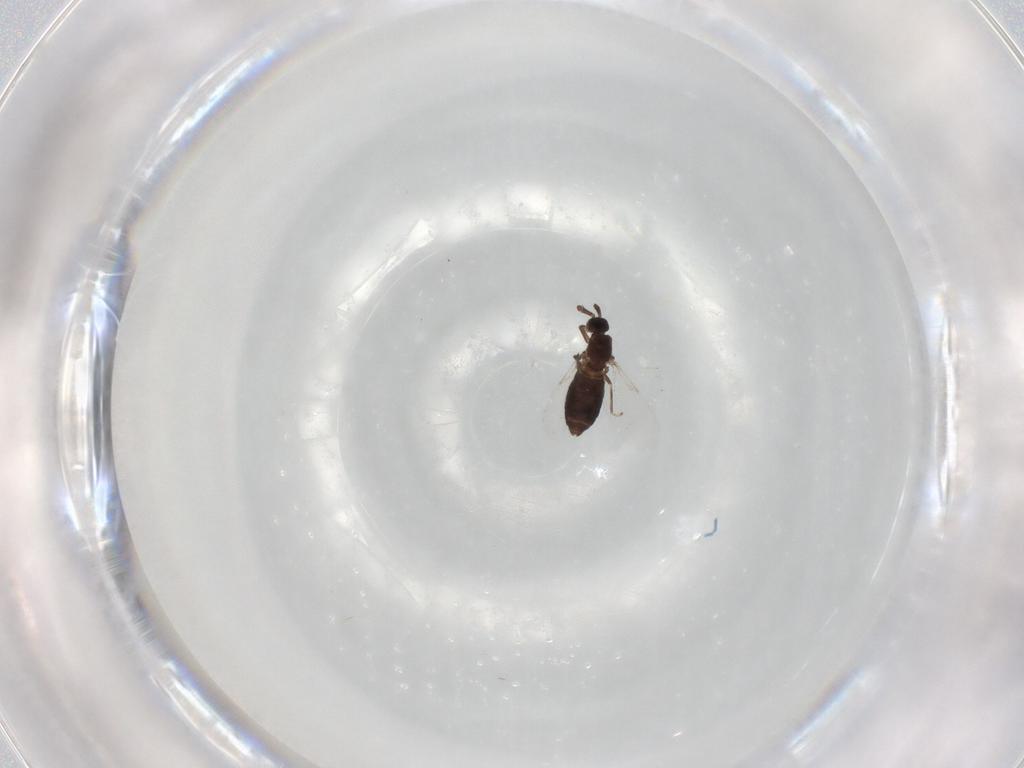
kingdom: Animalia
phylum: Arthropoda
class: Insecta
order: Diptera
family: Scatopsidae
